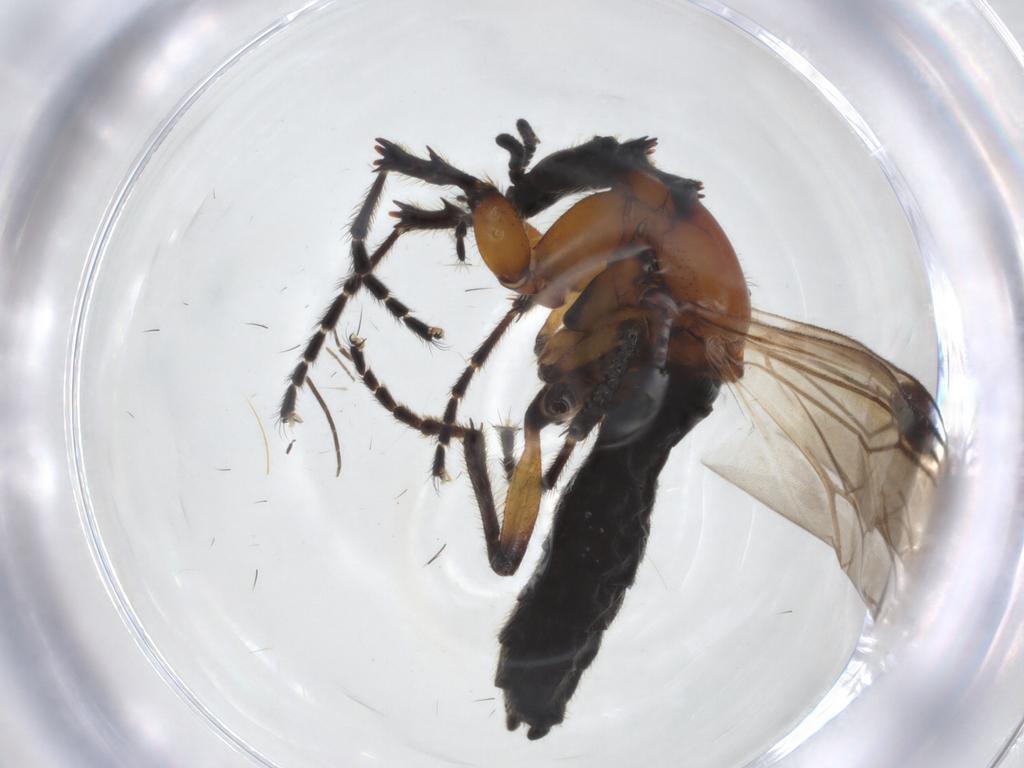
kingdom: Animalia
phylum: Arthropoda
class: Insecta
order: Diptera
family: Bibionidae
